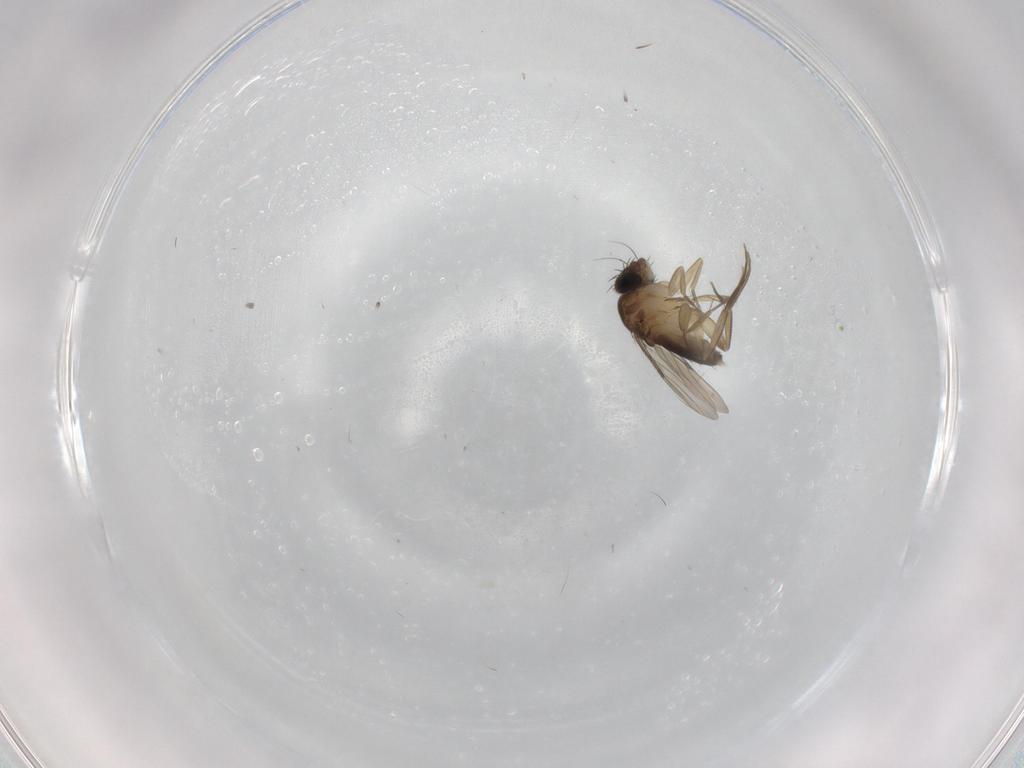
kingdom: Animalia
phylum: Arthropoda
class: Insecta
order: Diptera
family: Phoridae
